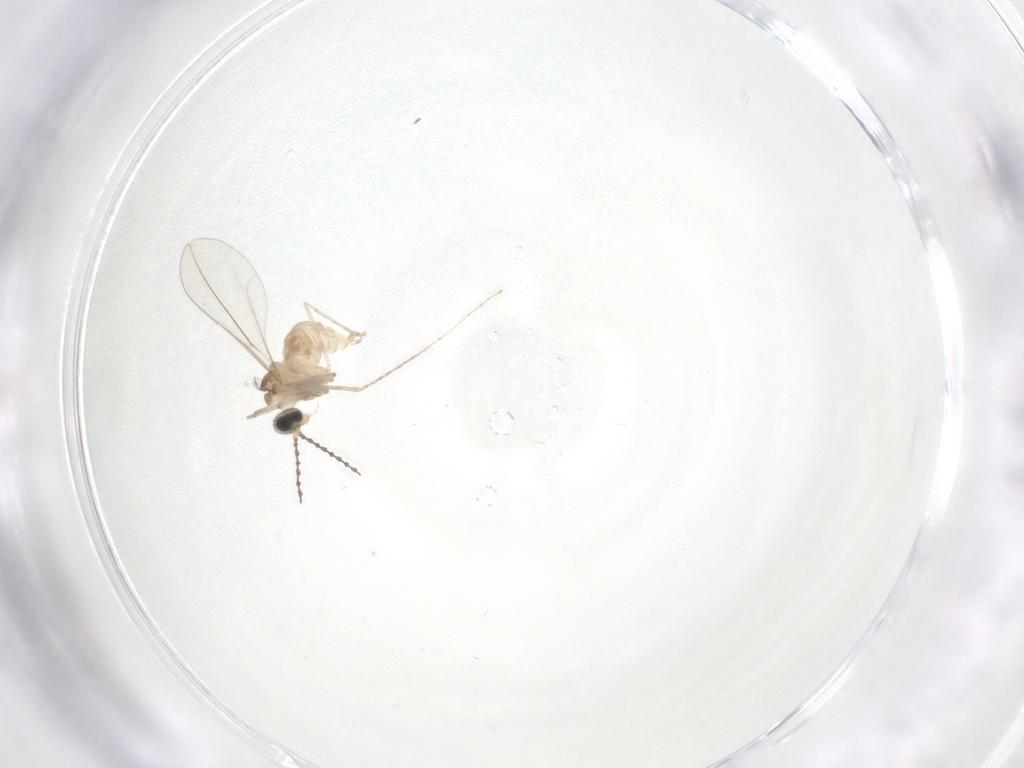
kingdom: Animalia
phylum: Arthropoda
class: Insecta
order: Diptera
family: Cecidomyiidae
